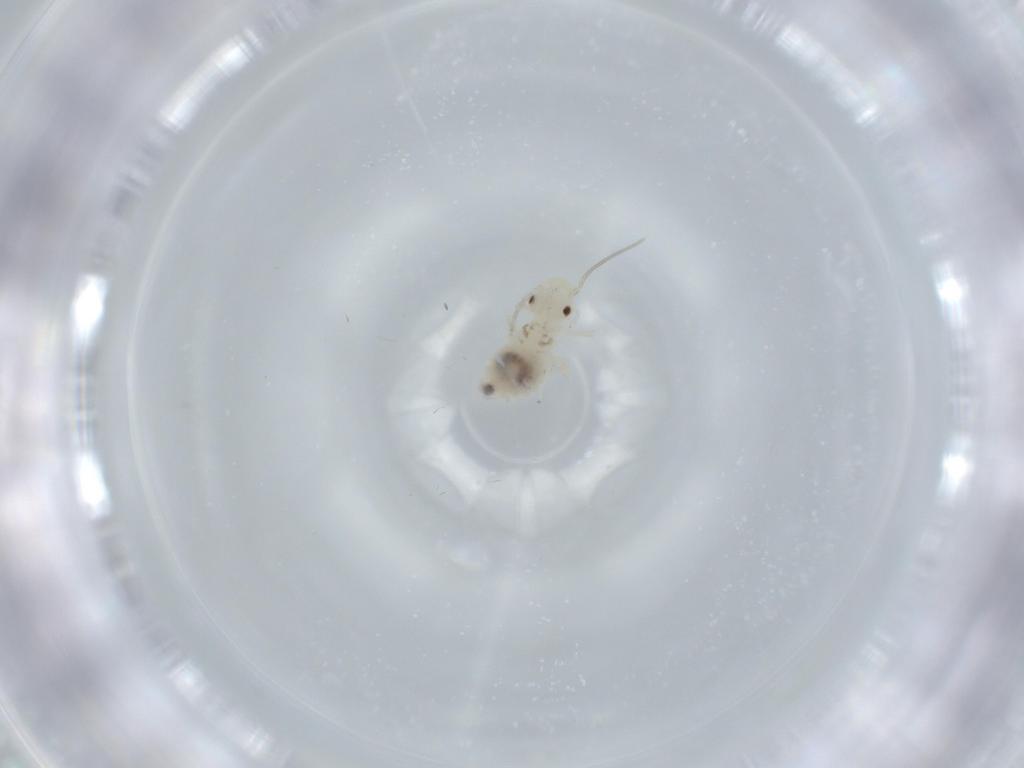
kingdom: Animalia
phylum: Arthropoda
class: Insecta
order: Psocodea
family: Caeciliusidae
